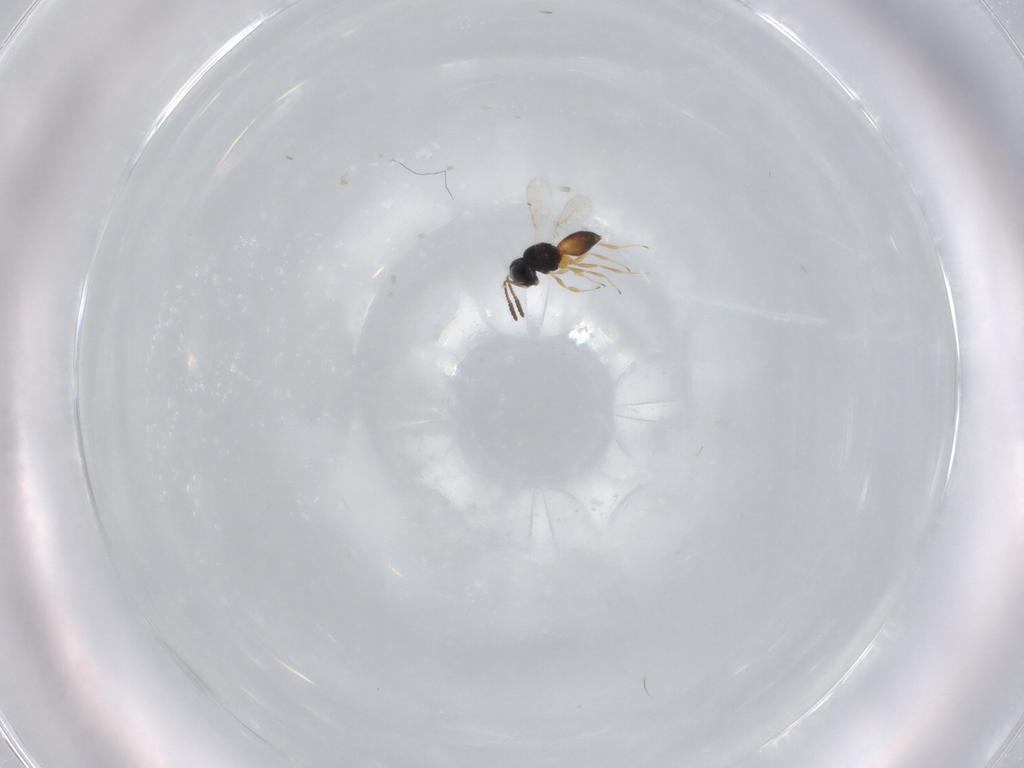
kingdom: Animalia
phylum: Arthropoda
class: Insecta
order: Hymenoptera
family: Scelionidae
